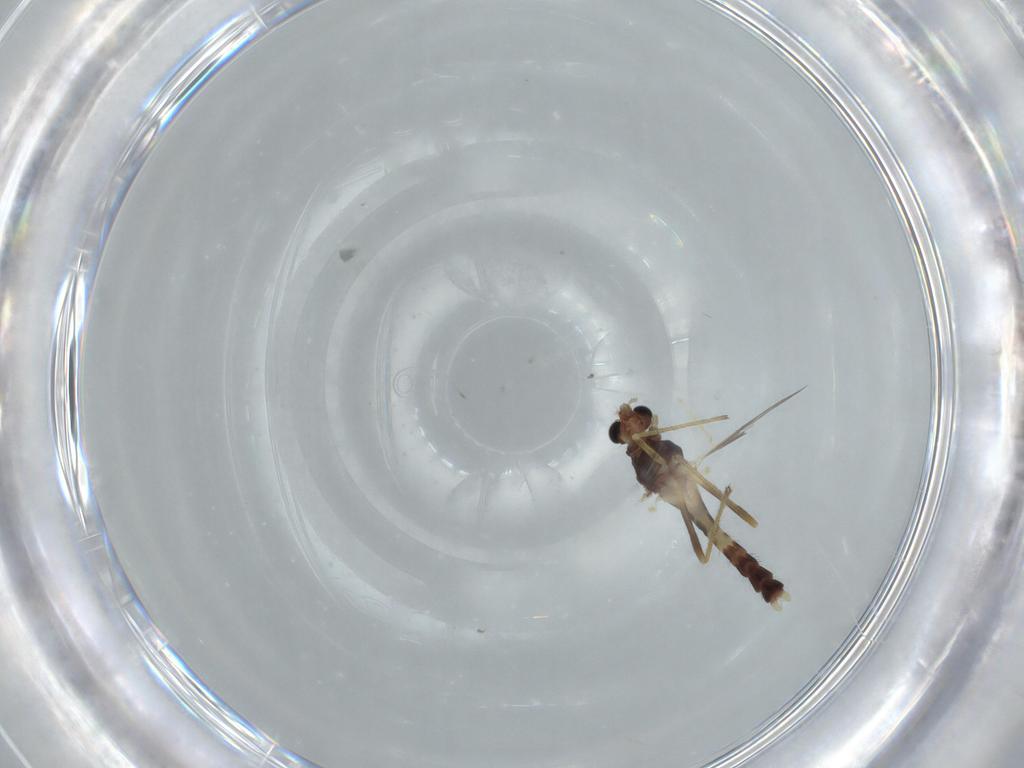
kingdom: Animalia
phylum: Arthropoda
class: Insecta
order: Diptera
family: Chironomidae
